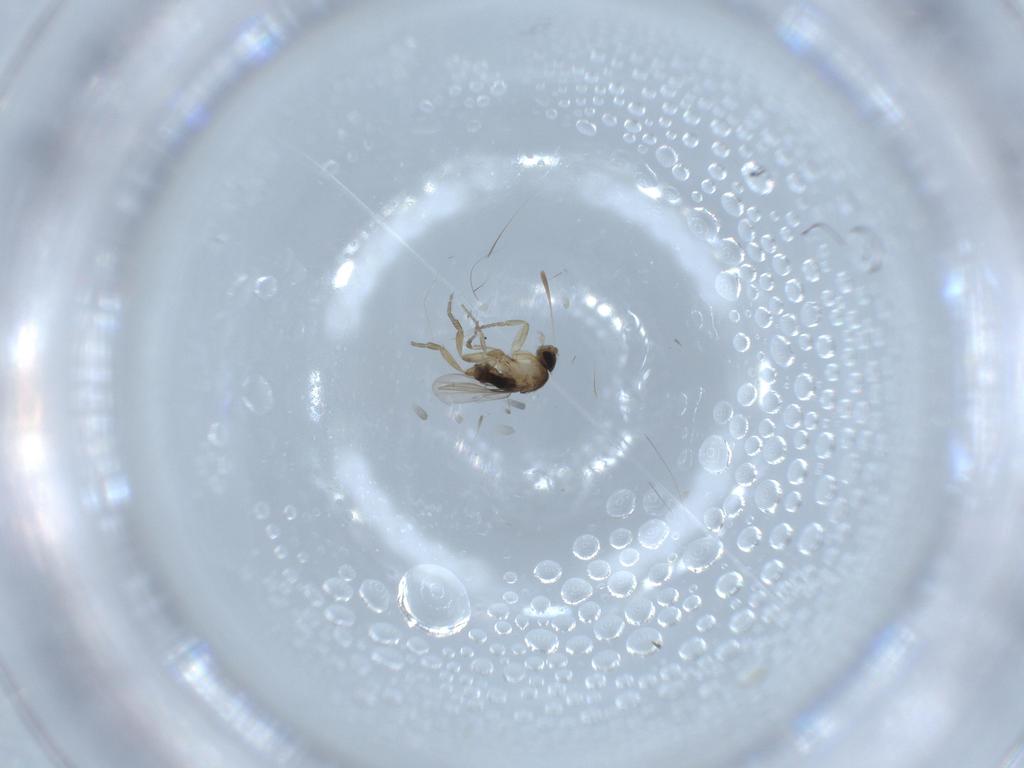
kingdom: Animalia
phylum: Arthropoda
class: Insecta
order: Diptera
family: Phoridae
